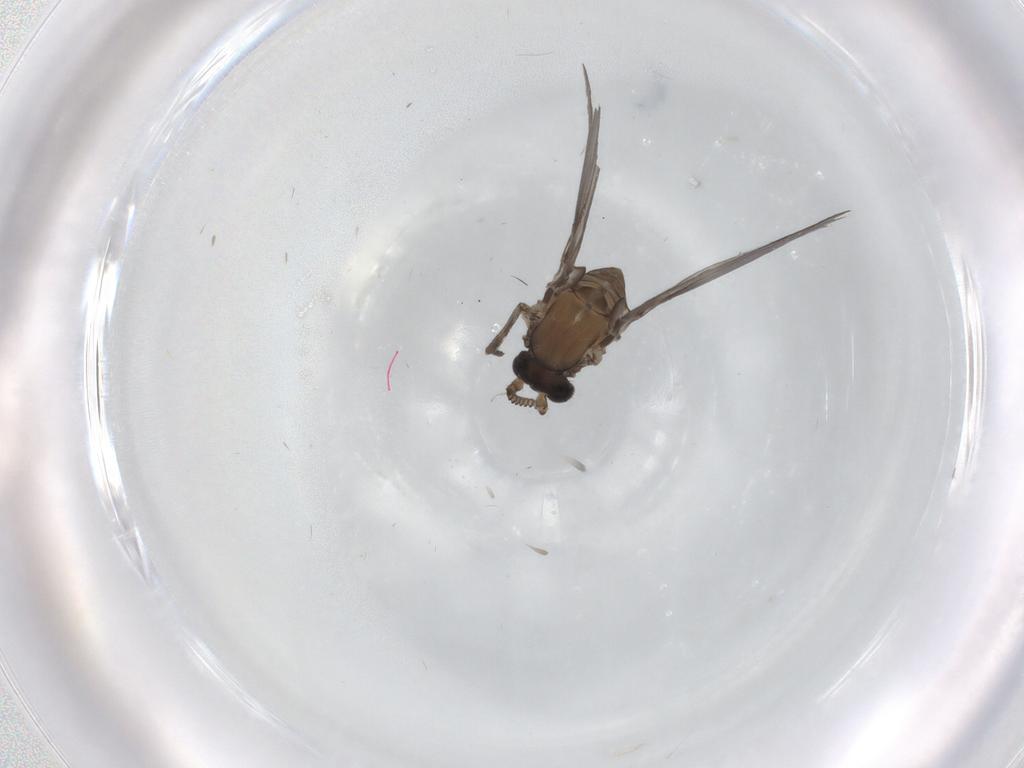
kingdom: Animalia
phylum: Arthropoda
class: Insecta
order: Diptera
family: Psychodidae
